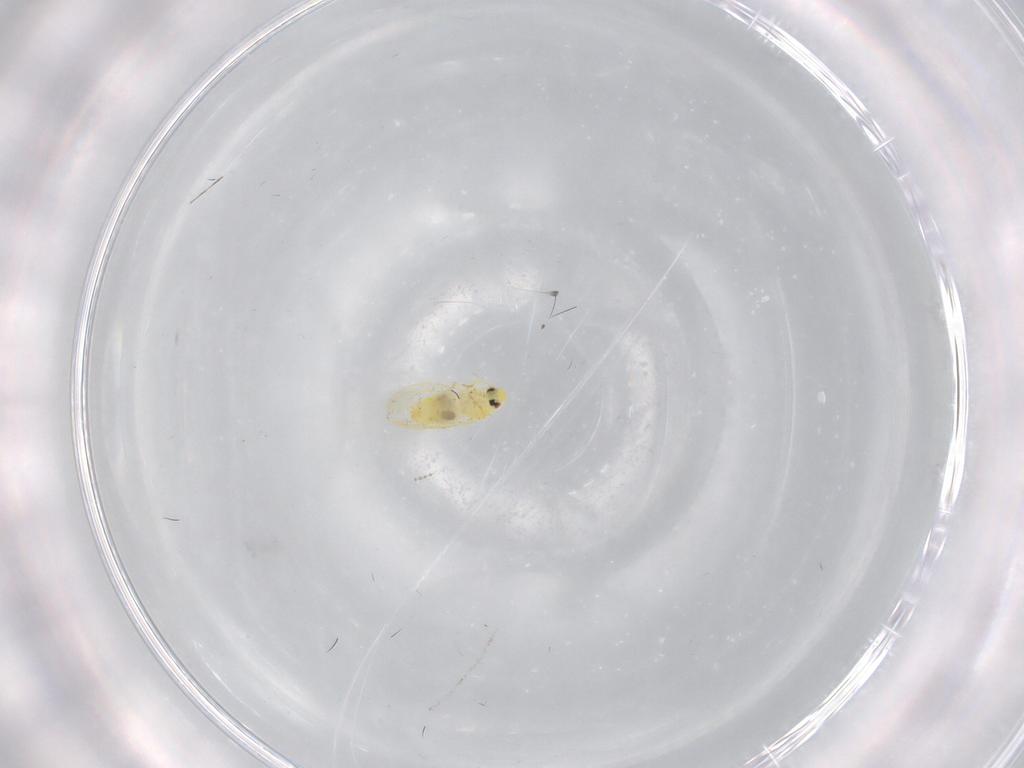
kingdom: Animalia
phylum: Arthropoda
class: Insecta
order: Hemiptera
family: Aleyrodidae
